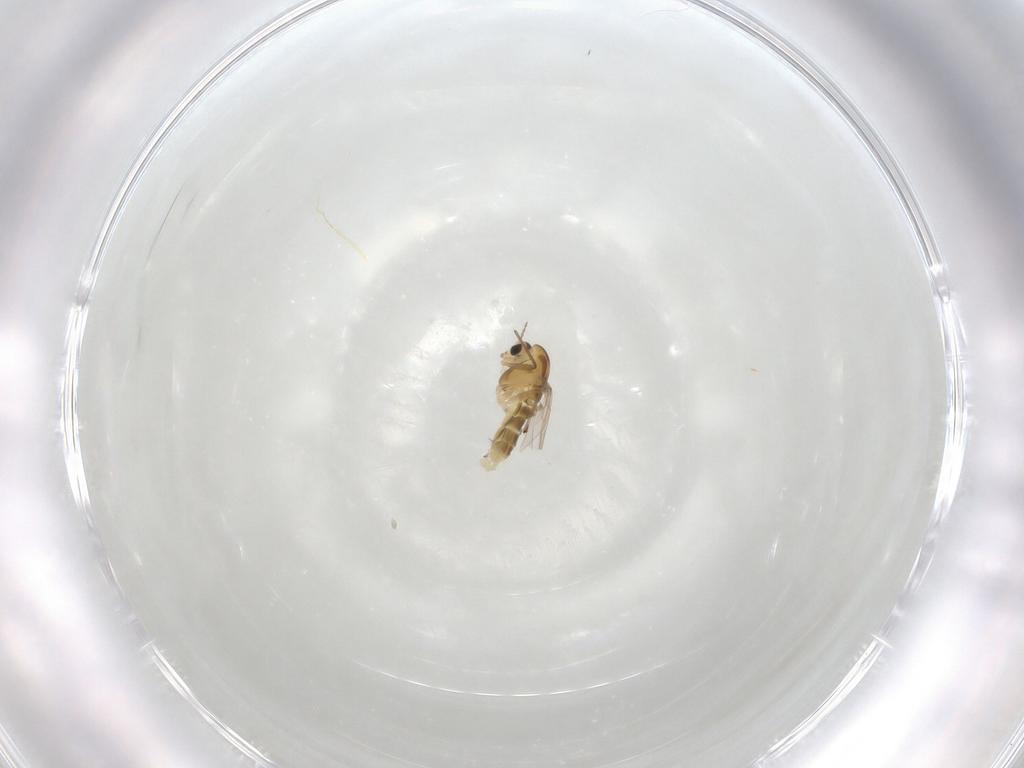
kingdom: Animalia
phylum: Arthropoda
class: Insecta
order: Diptera
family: Chironomidae
